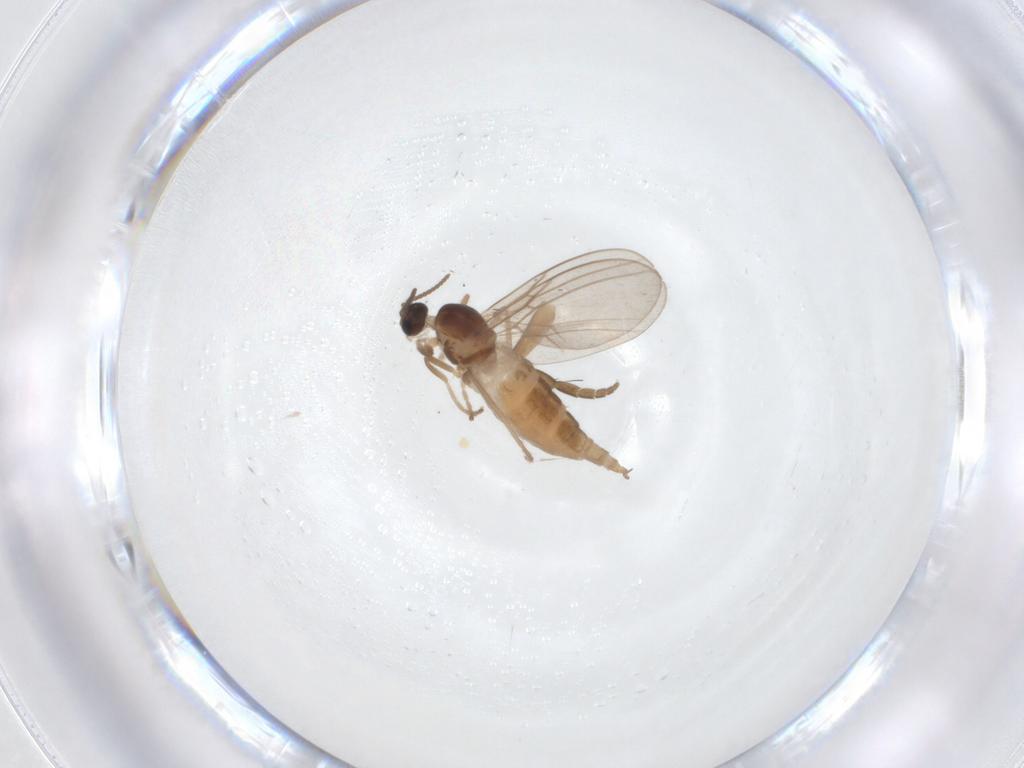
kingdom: Animalia
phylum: Arthropoda
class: Insecta
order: Diptera
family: Cecidomyiidae
